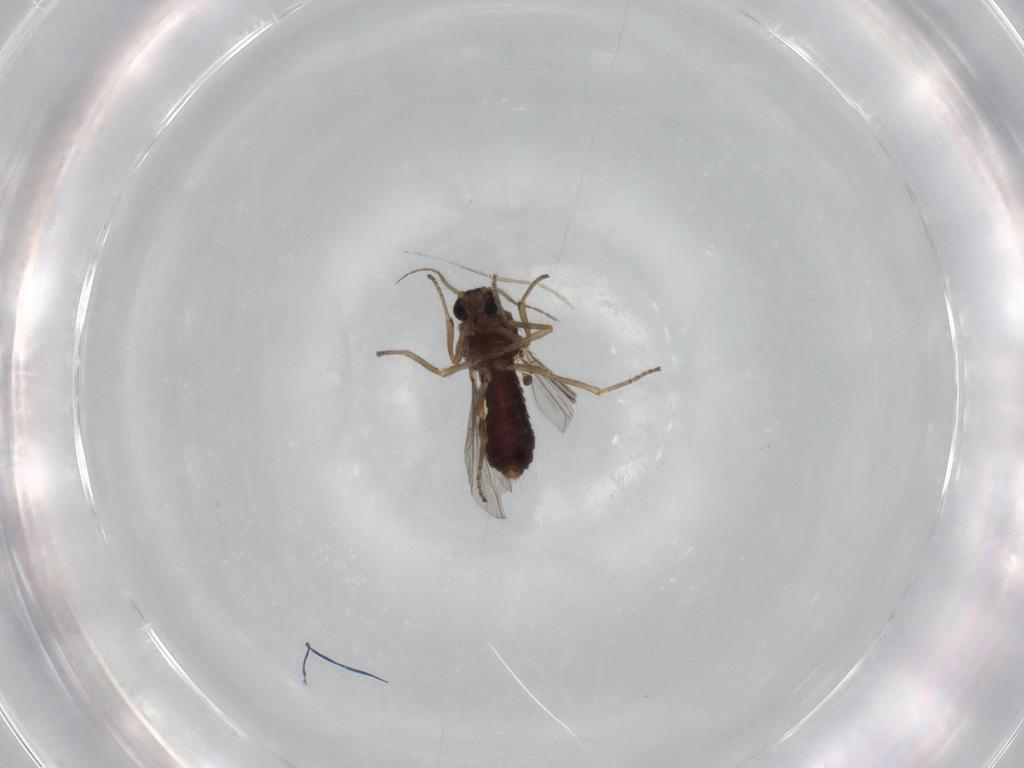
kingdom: Animalia
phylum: Arthropoda
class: Insecta
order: Diptera
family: Ceratopogonidae
